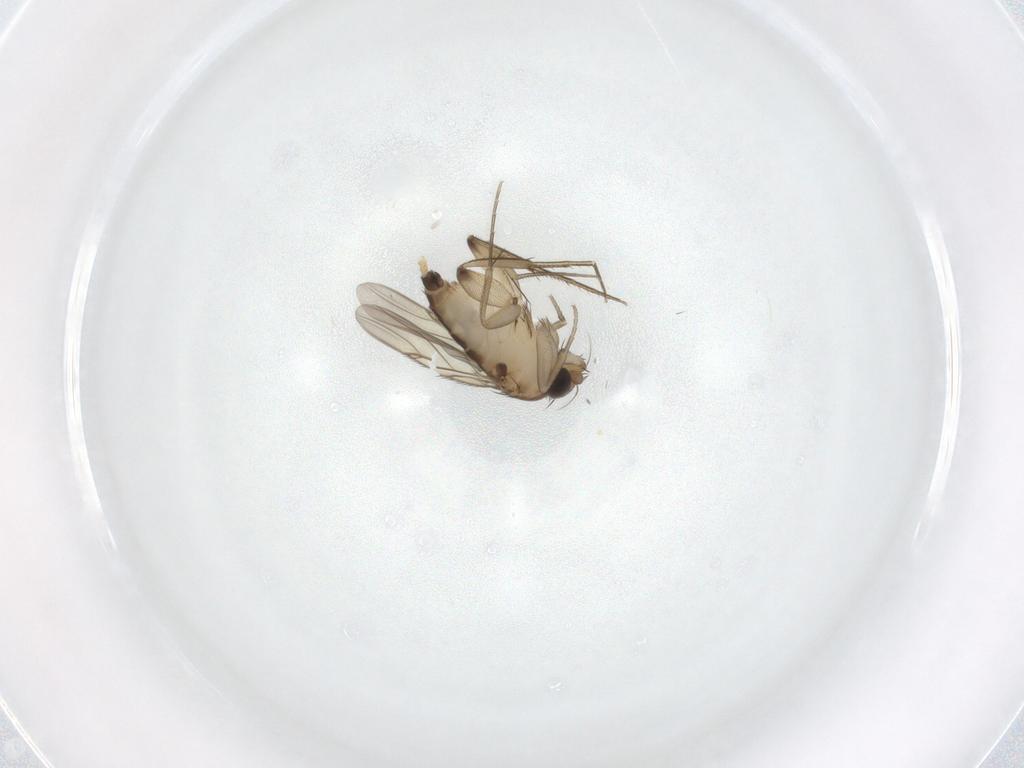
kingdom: Animalia
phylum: Arthropoda
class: Insecta
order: Diptera
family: Phoridae
